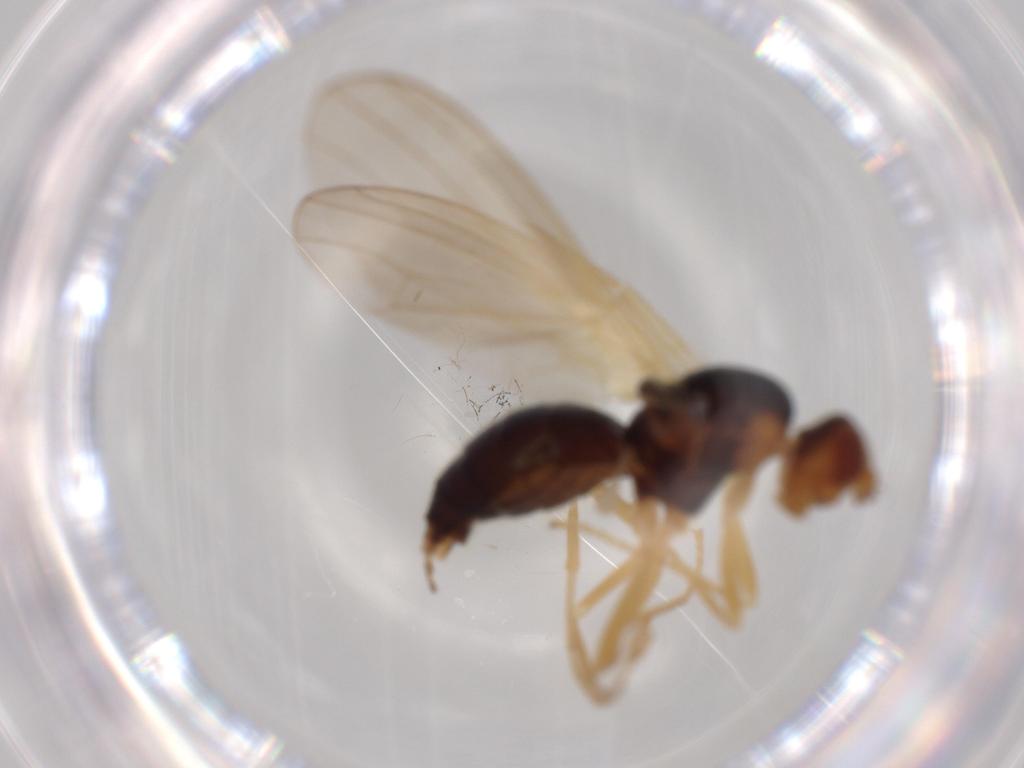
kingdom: Animalia
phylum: Arthropoda
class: Insecta
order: Diptera
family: Psilidae
